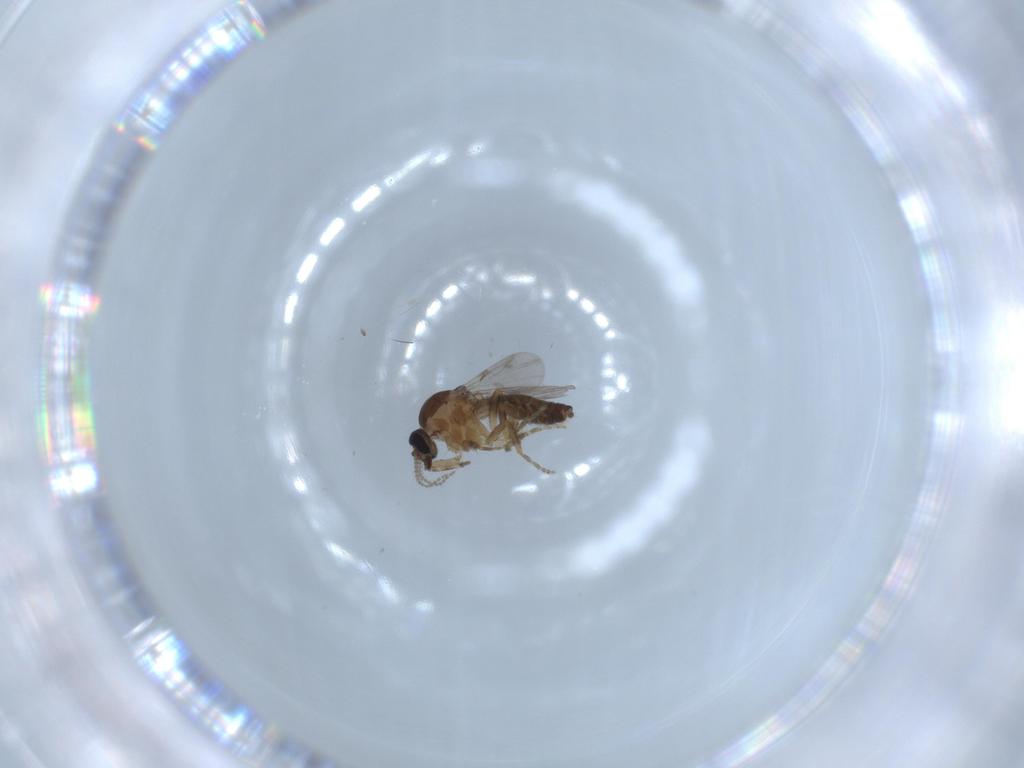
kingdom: Animalia
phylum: Arthropoda
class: Insecta
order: Diptera
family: Ceratopogonidae
